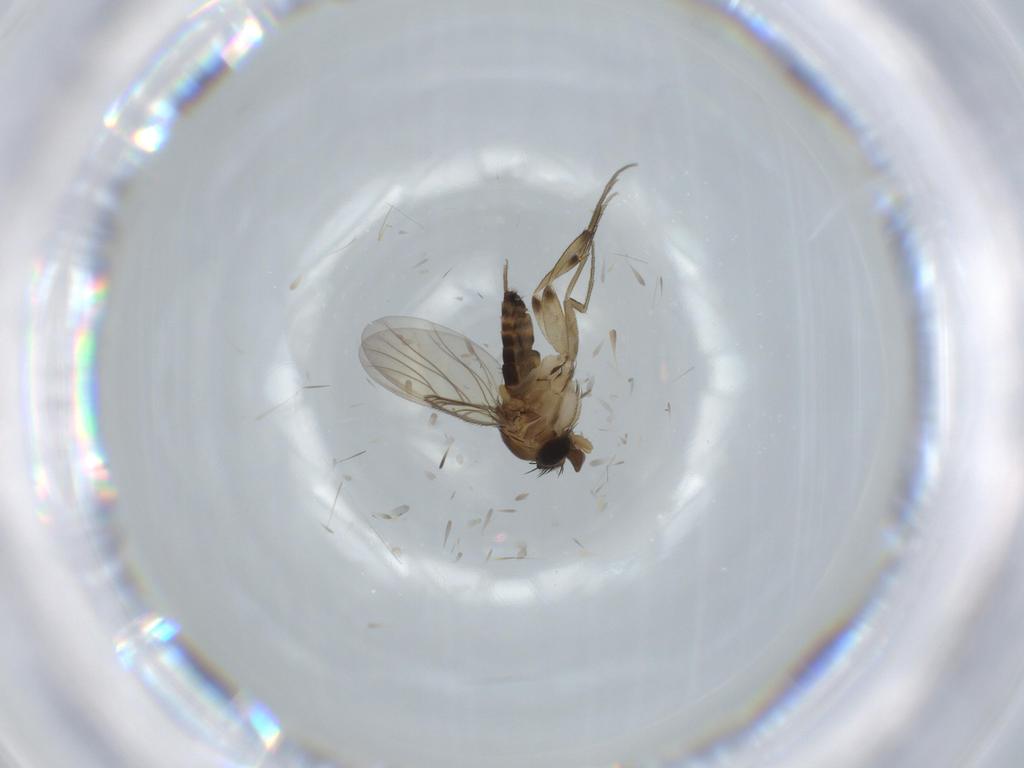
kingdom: Animalia
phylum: Arthropoda
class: Insecta
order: Diptera
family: Phoridae
